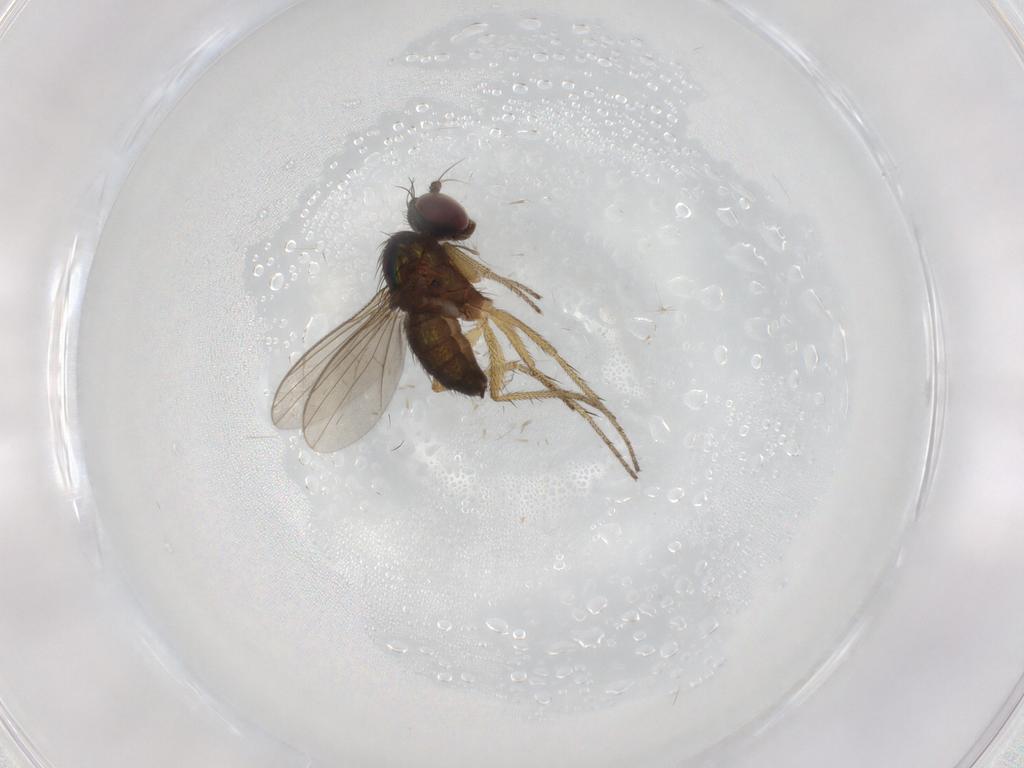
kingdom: Animalia
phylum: Arthropoda
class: Insecta
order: Diptera
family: Chironomidae
